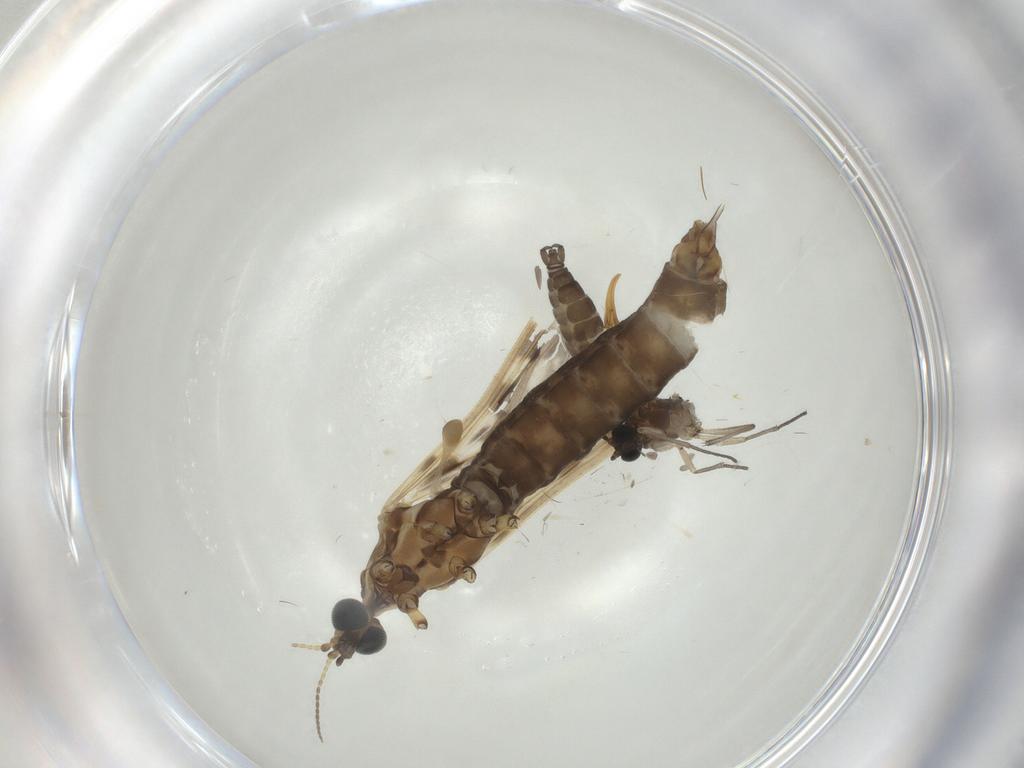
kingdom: Animalia
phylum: Arthropoda
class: Insecta
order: Diptera
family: Limoniidae
